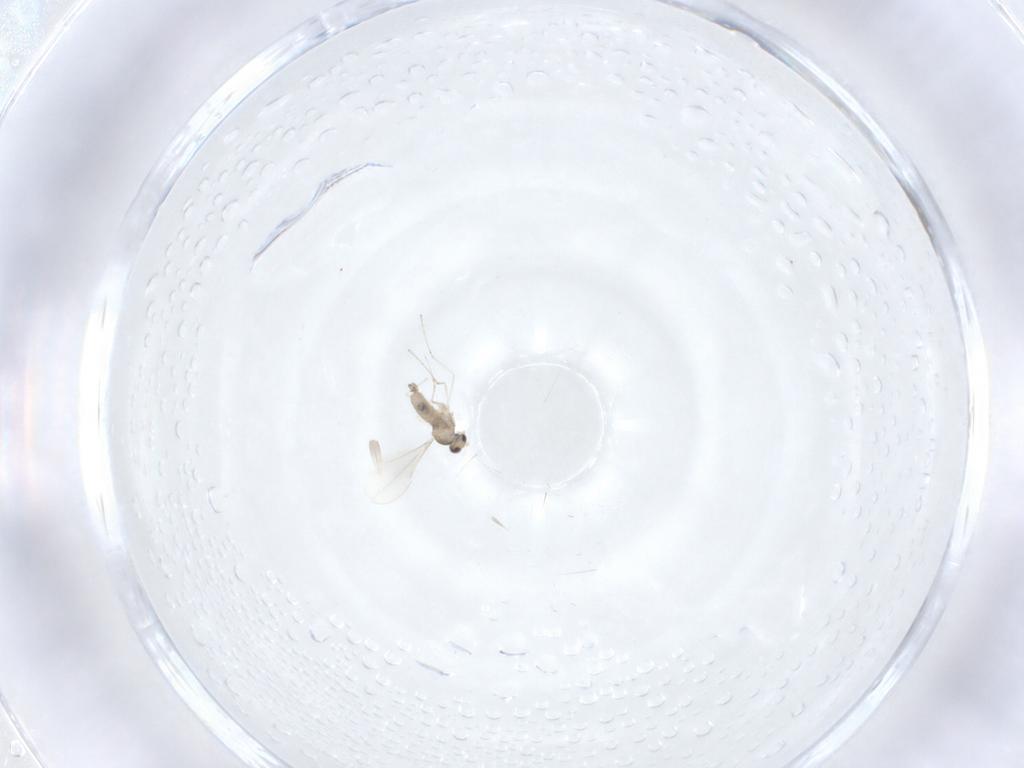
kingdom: Animalia
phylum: Arthropoda
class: Insecta
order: Diptera
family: Cecidomyiidae
